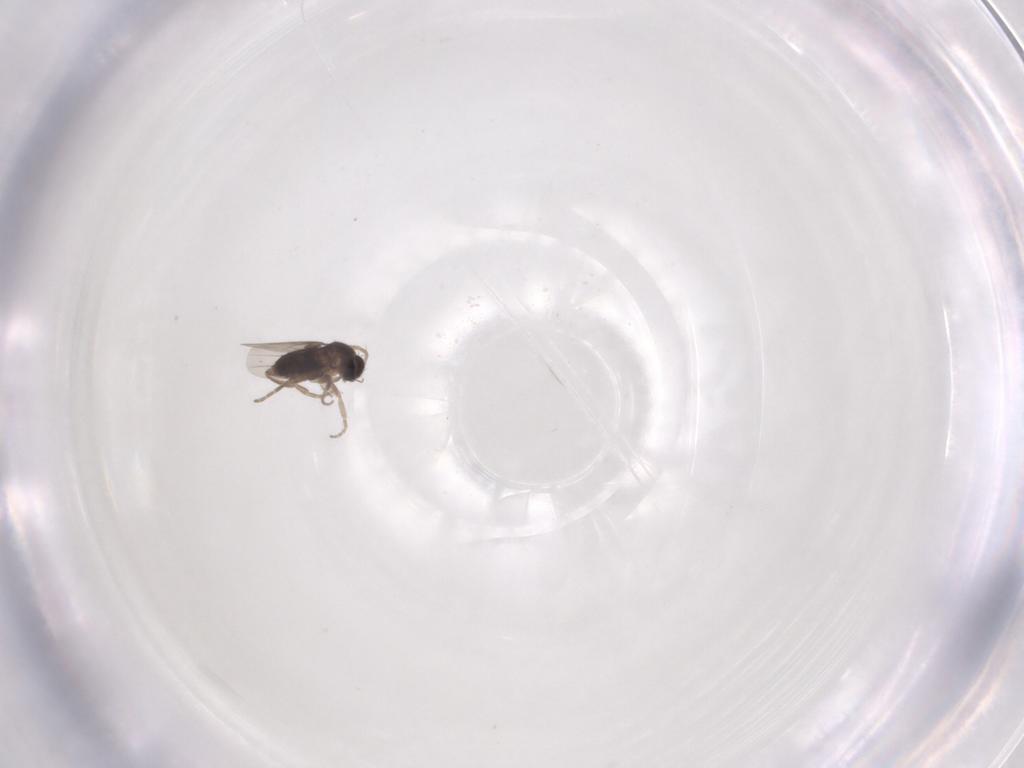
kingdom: Animalia
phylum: Arthropoda
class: Insecta
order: Diptera
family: Phoridae
